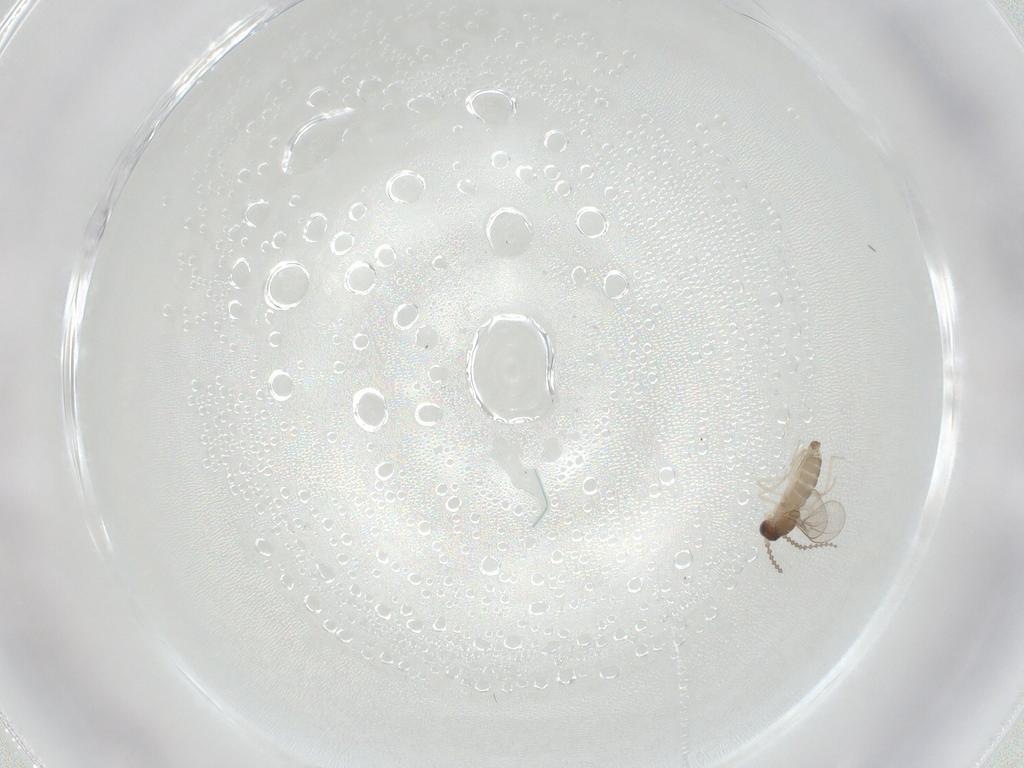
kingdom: Animalia
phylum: Arthropoda
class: Insecta
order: Diptera
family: Cecidomyiidae
